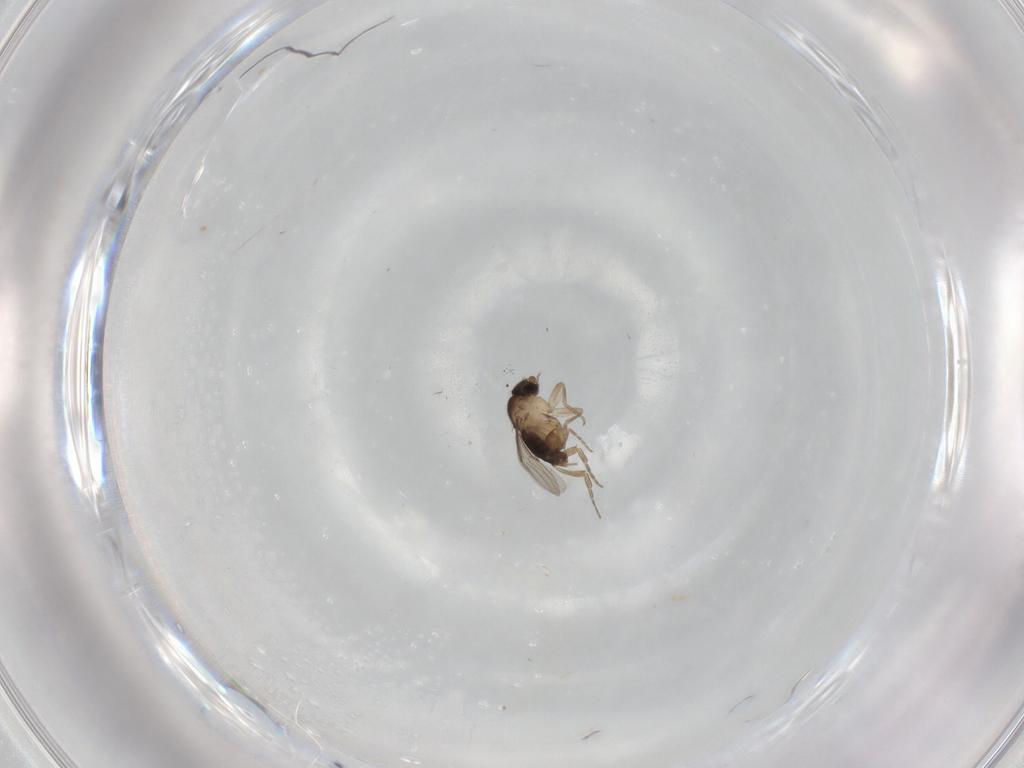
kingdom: Animalia
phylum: Arthropoda
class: Insecta
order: Diptera
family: Phoridae
